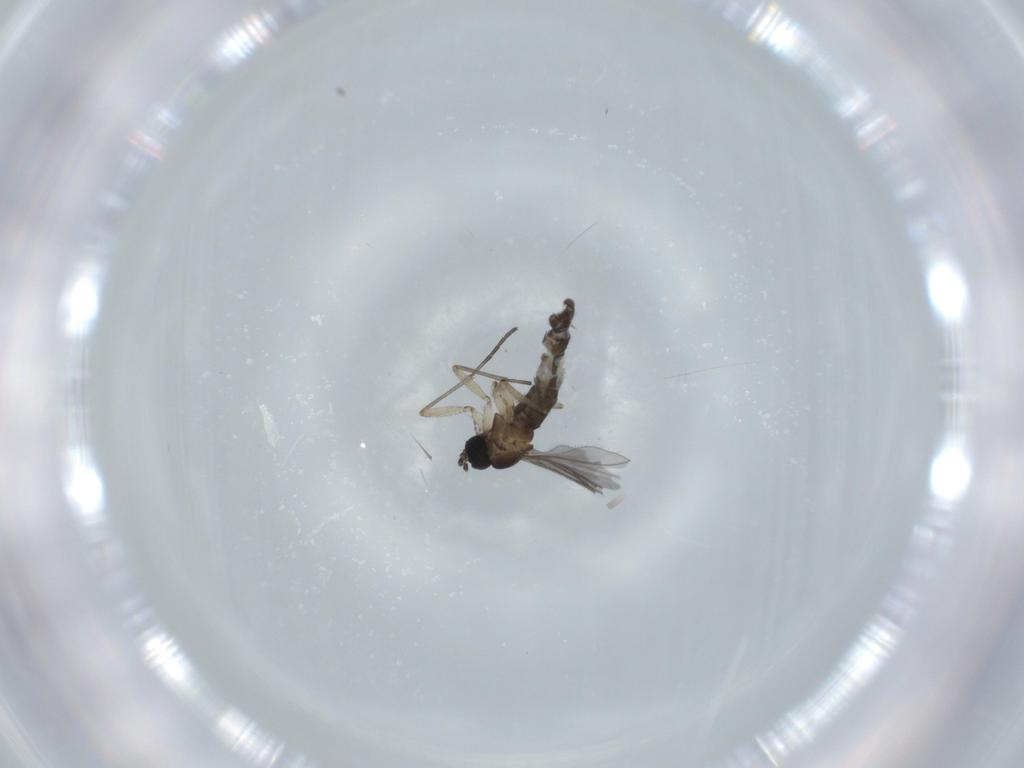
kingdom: Animalia
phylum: Arthropoda
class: Insecta
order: Diptera
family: Sciaridae
